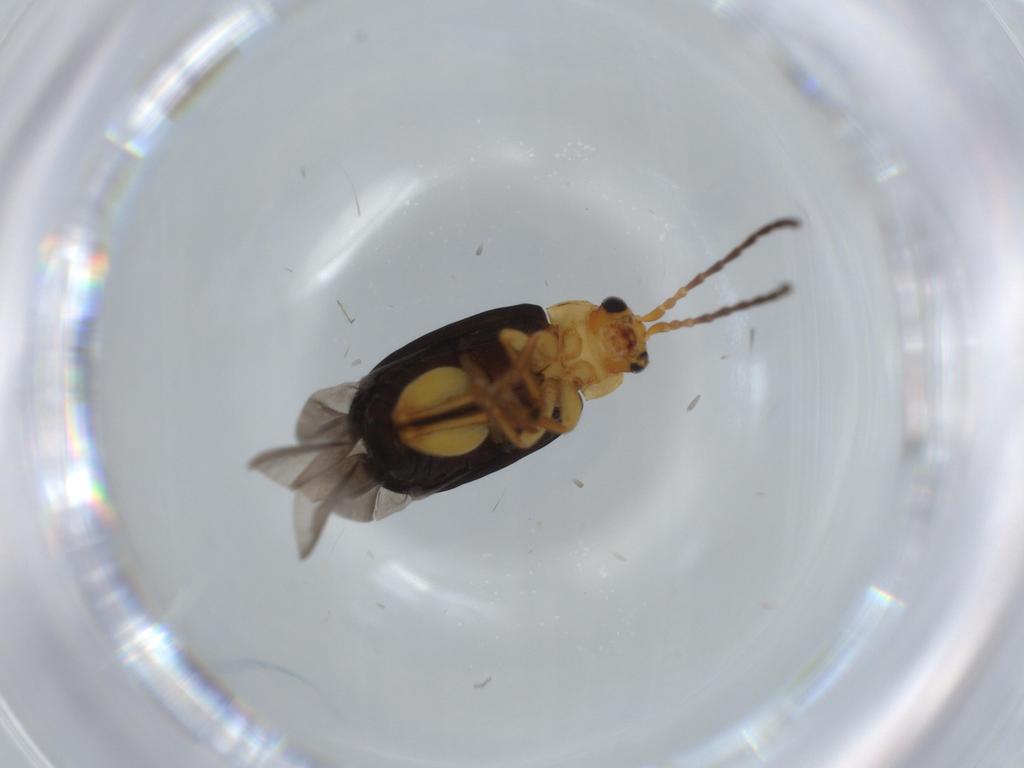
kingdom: Animalia
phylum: Arthropoda
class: Insecta
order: Coleoptera
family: Chrysomelidae
